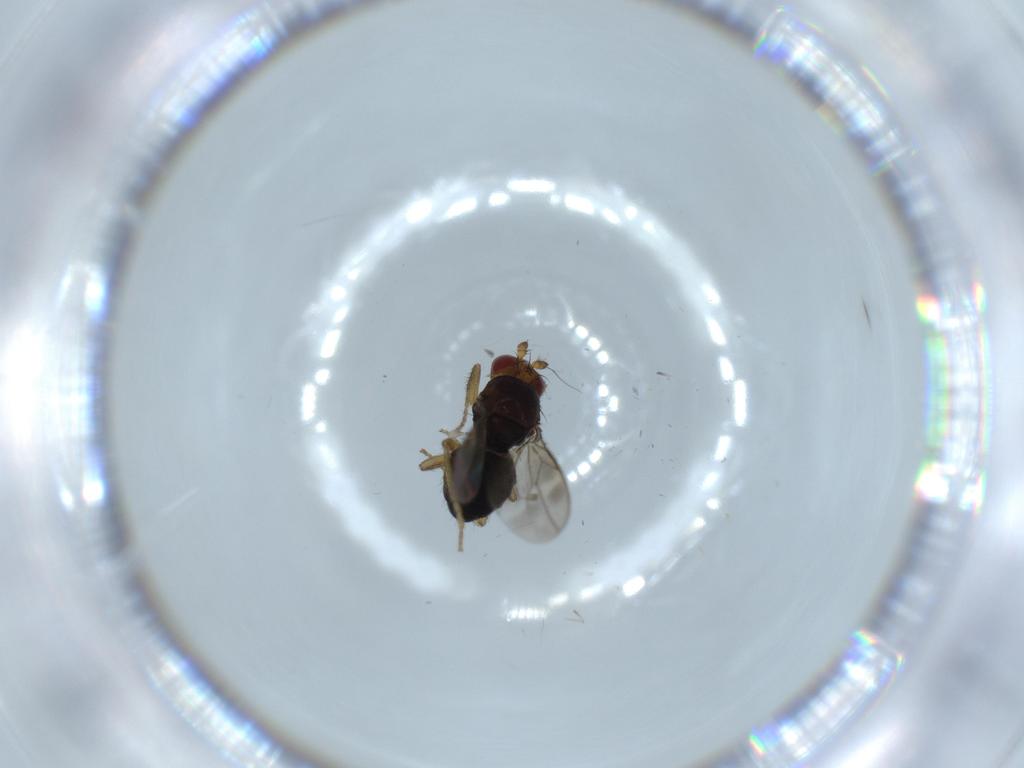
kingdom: Animalia
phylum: Arthropoda
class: Insecta
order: Diptera
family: Sphaeroceridae
